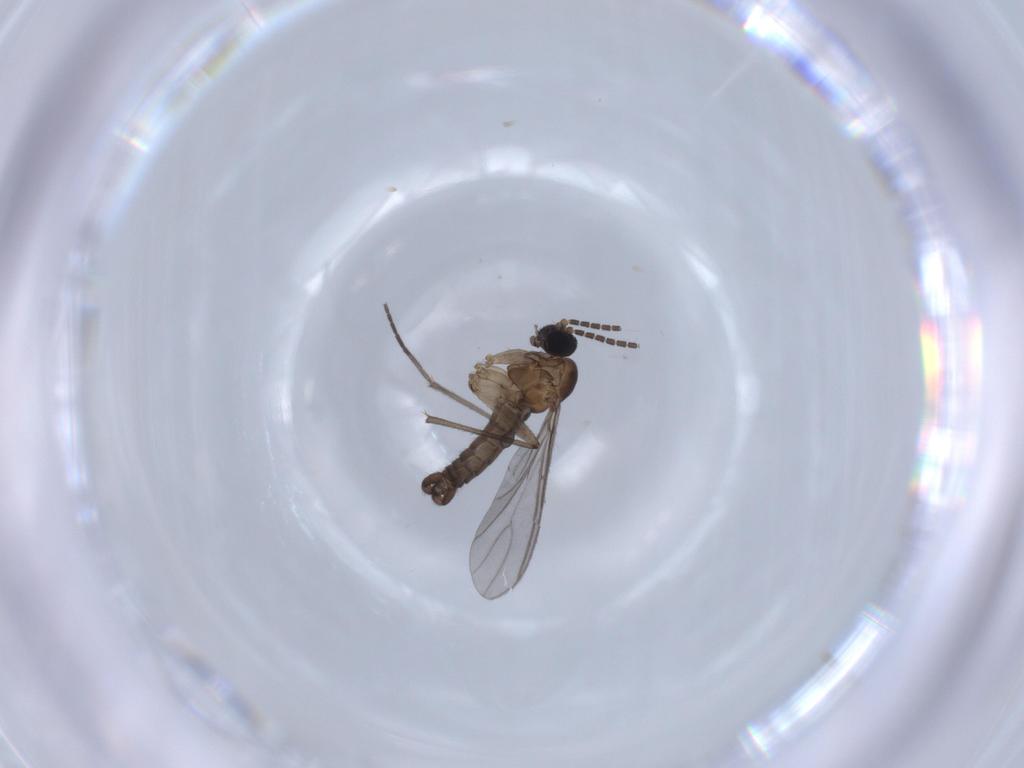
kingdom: Animalia
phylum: Arthropoda
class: Insecta
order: Diptera
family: Sciaridae
